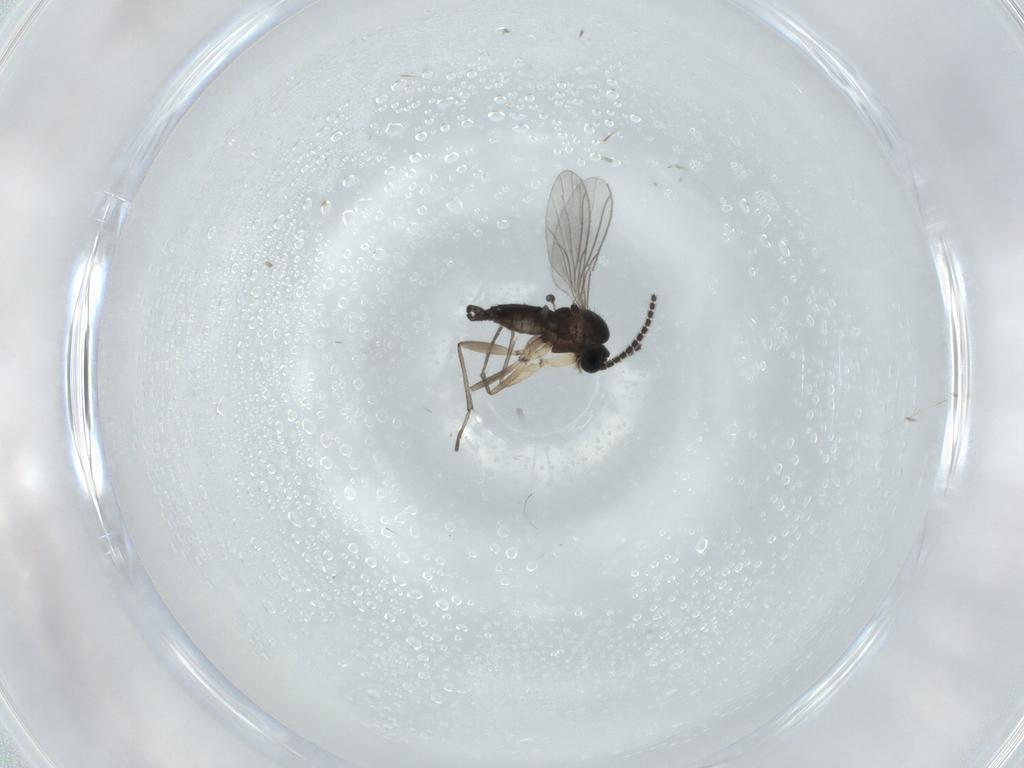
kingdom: Animalia
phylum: Arthropoda
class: Insecta
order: Diptera
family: Sciaridae
